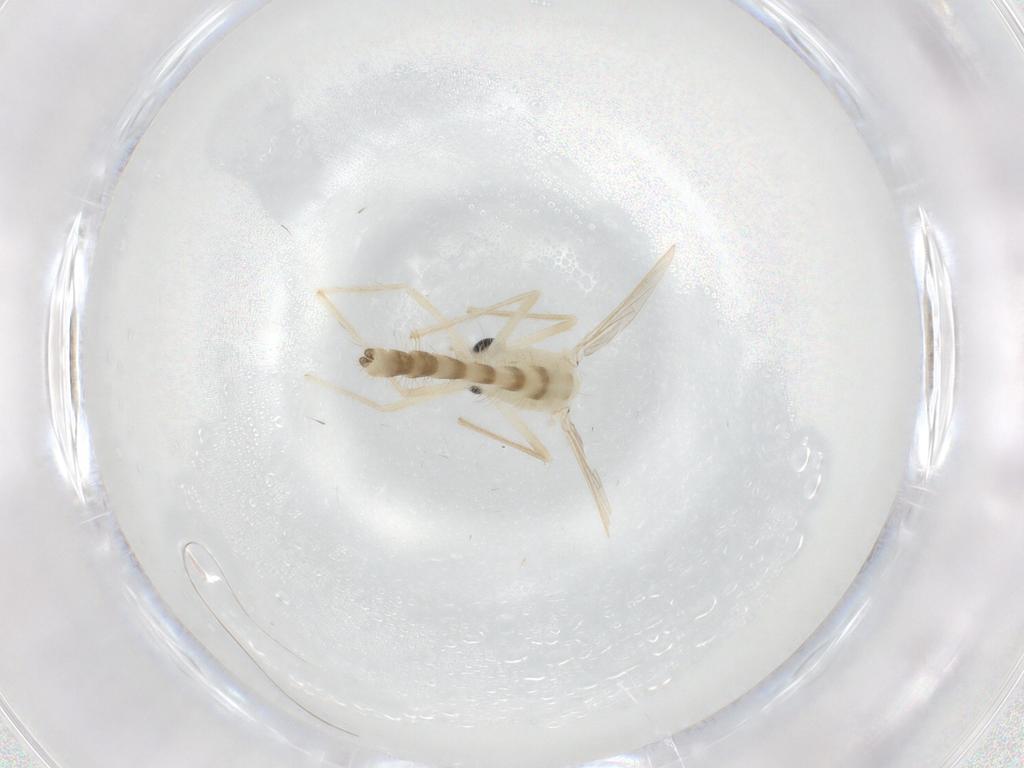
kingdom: Animalia
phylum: Arthropoda
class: Insecta
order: Diptera
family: Chironomidae
